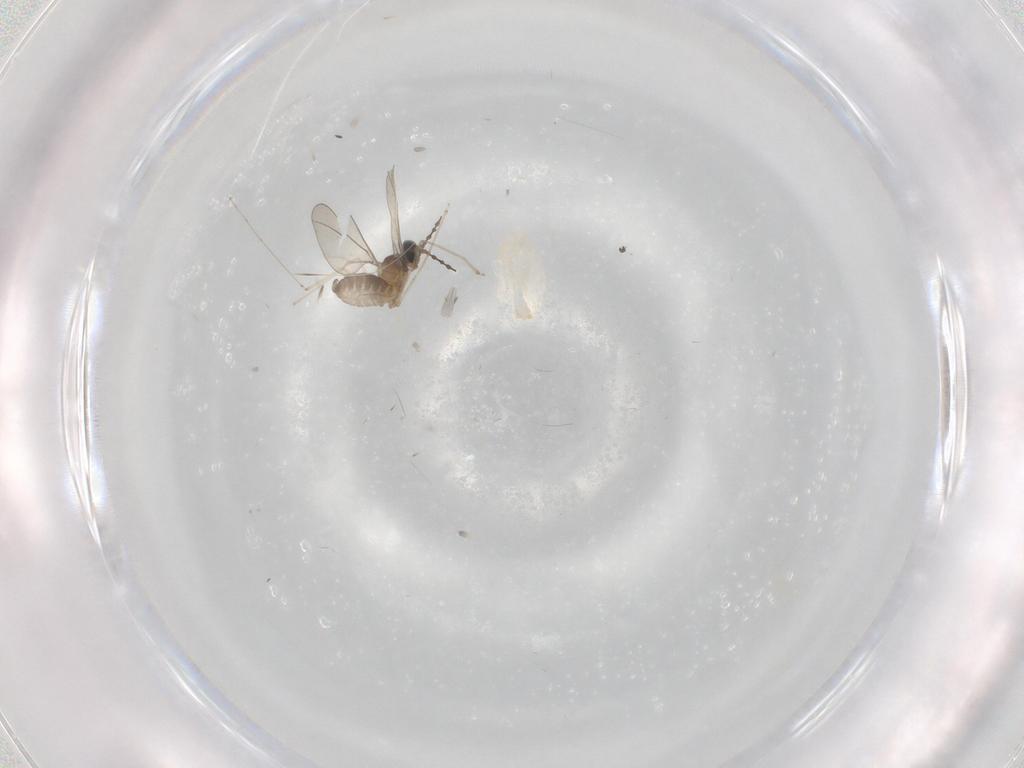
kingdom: Animalia
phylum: Arthropoda
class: Insecta
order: Diptera
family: Cecidomyiidae
